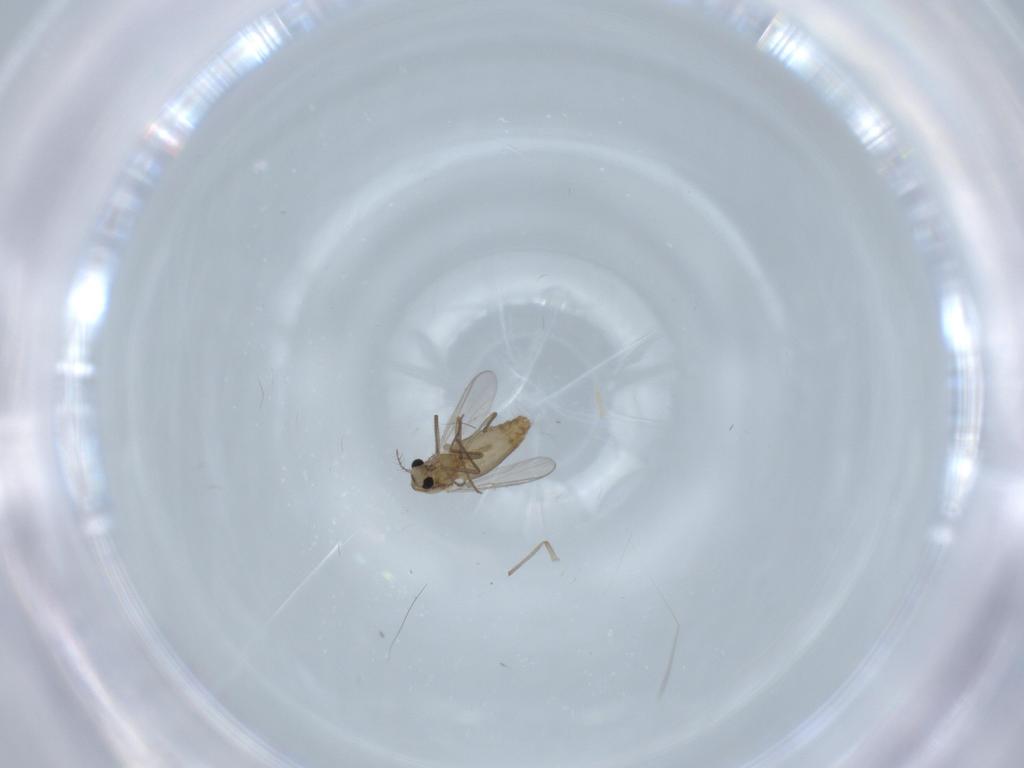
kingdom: Animalia
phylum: Arthropoda
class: Insecta
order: Diptera
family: Chironomidae
